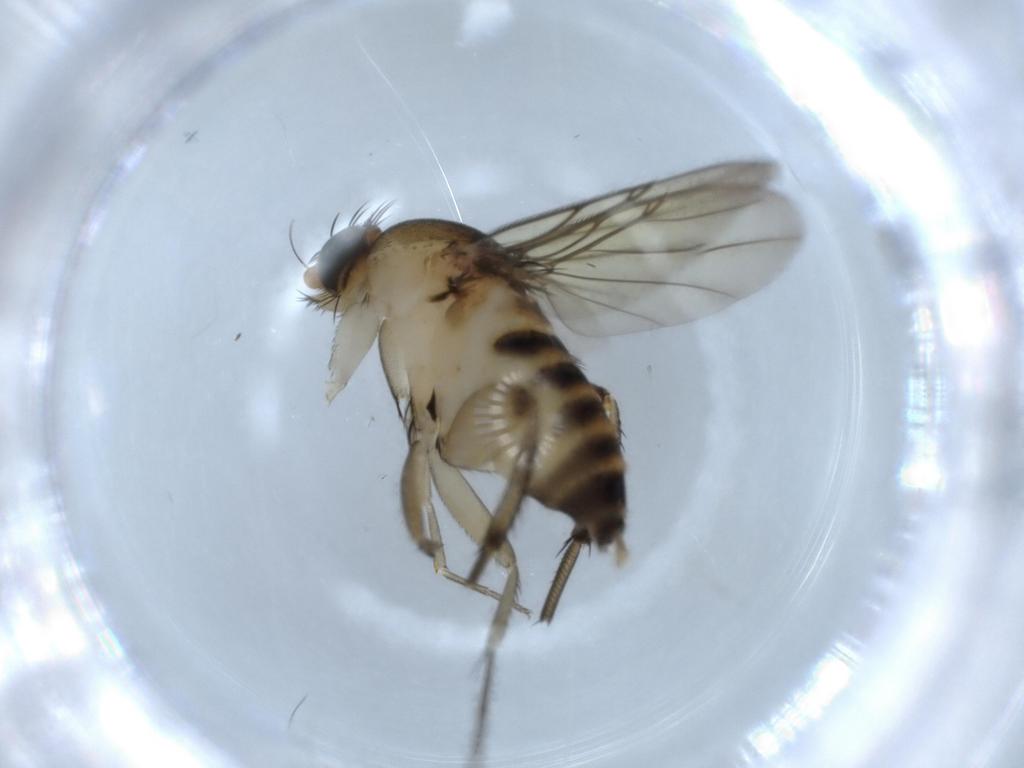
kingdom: Animalia
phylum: Arthropoda
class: Insecta
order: Diptera
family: Phoridae
